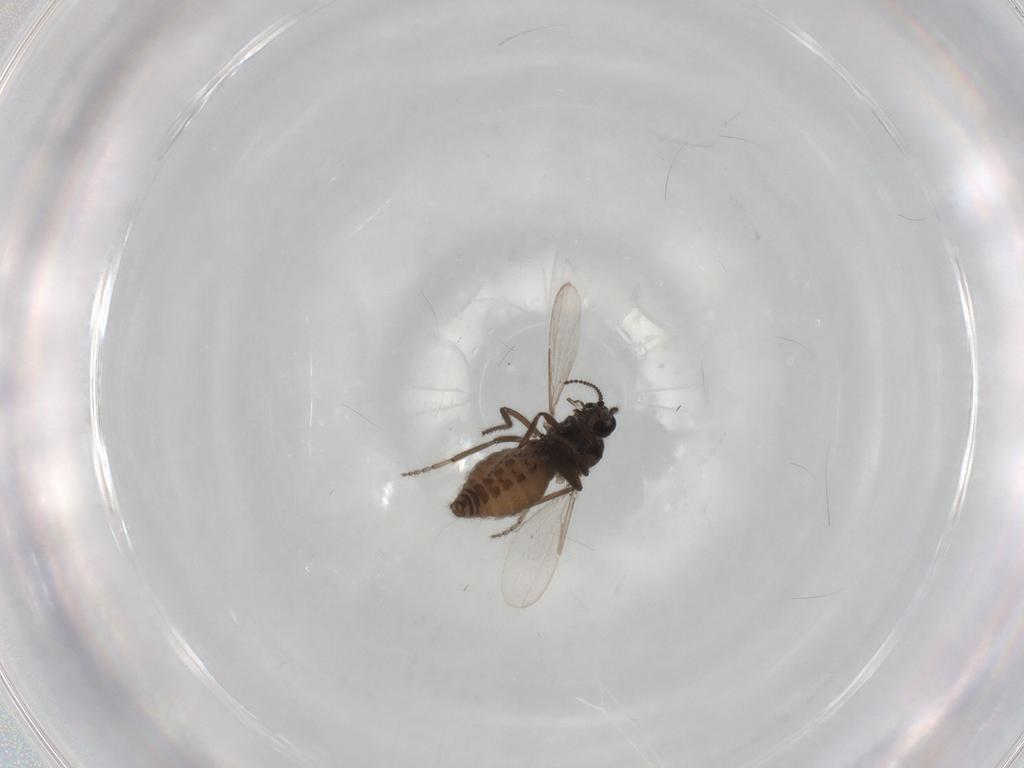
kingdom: Animalia
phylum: Arthropoda
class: Insecta
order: Diptera
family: Ceratopogonidae
